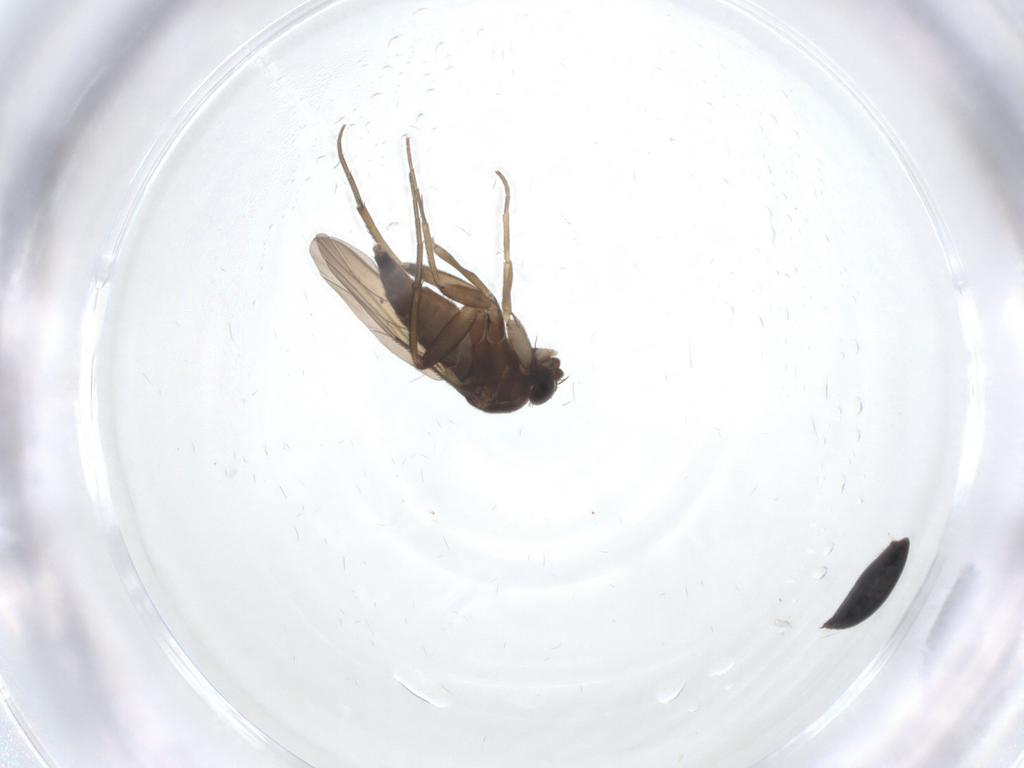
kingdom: Animalia
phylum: Arthropoda
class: Insecta
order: Diptera
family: Phoridae
